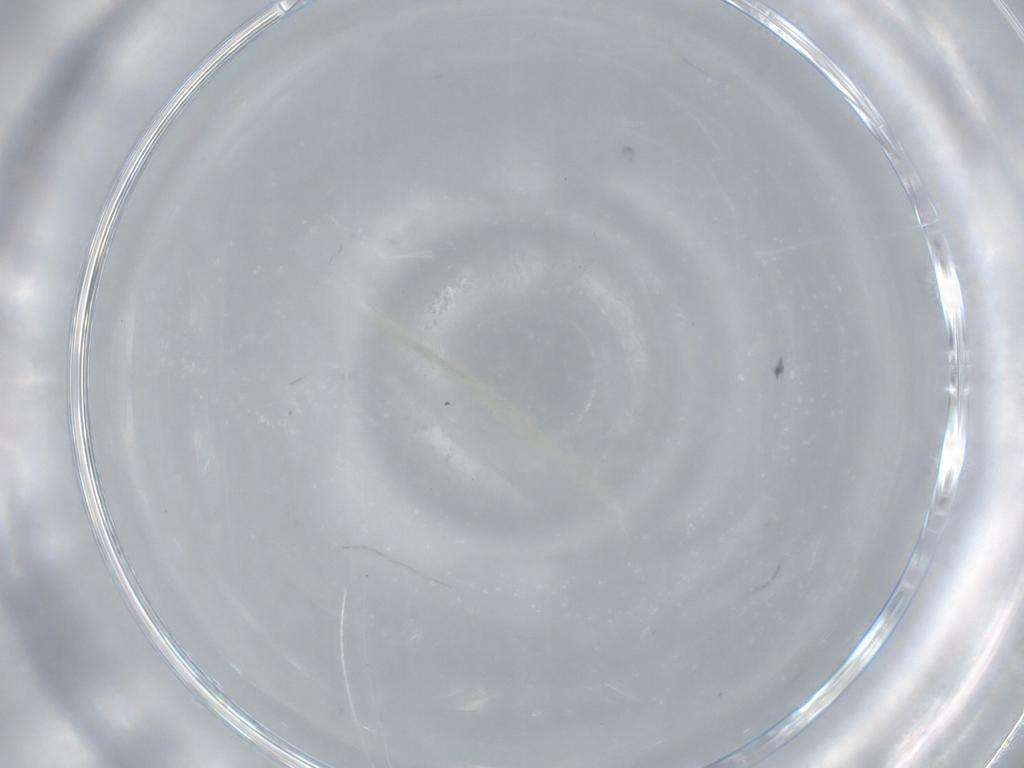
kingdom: Animalia
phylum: Arthropoda
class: Insecta
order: Diptera
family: Cecidomyiidae
